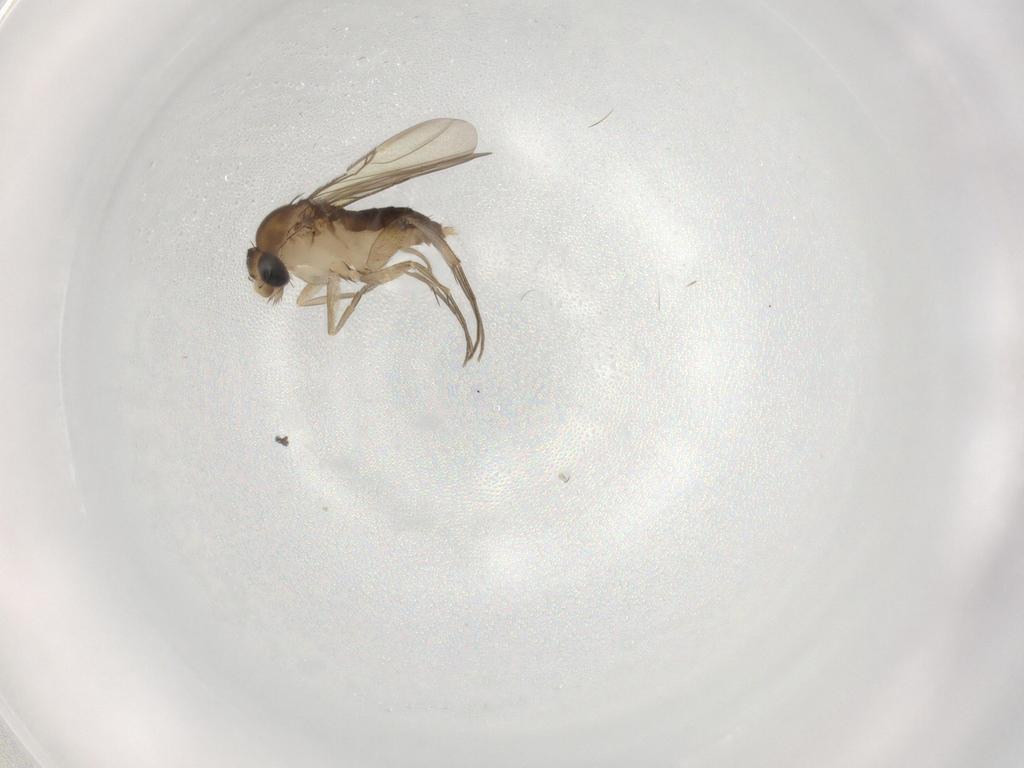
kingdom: Animalia
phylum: Arthropoda
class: Insecta
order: Diptera
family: Phoridae
